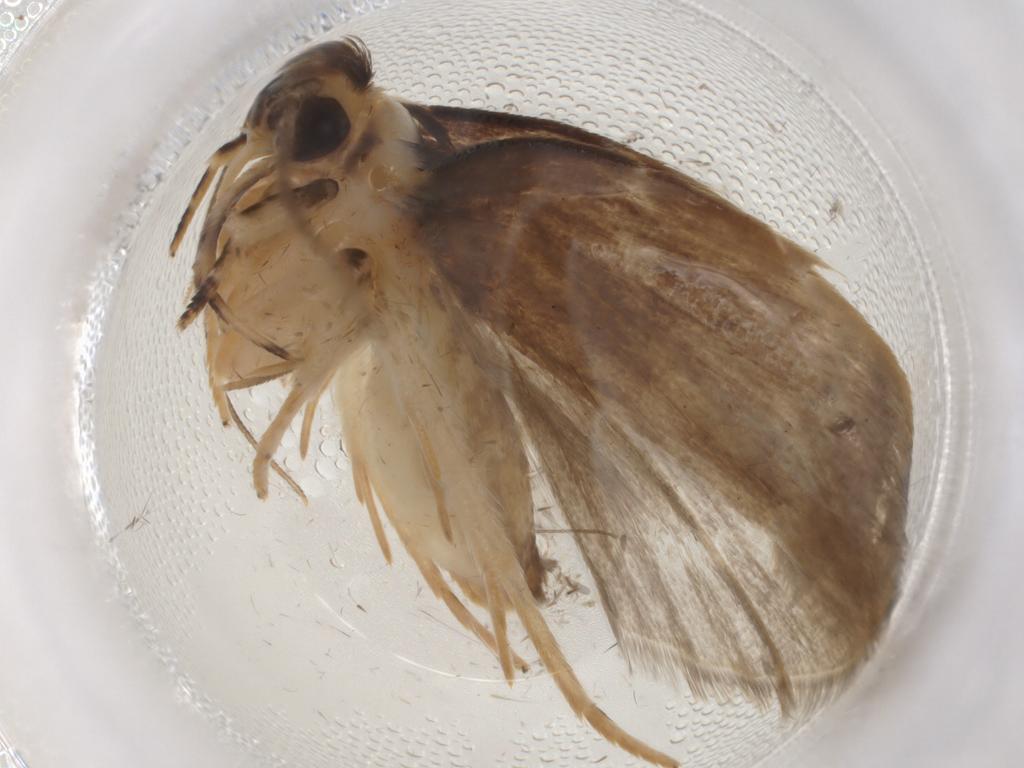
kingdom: Animalia
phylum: Arthropoda
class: Insecta
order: Lepidoptera
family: Depressariidae
